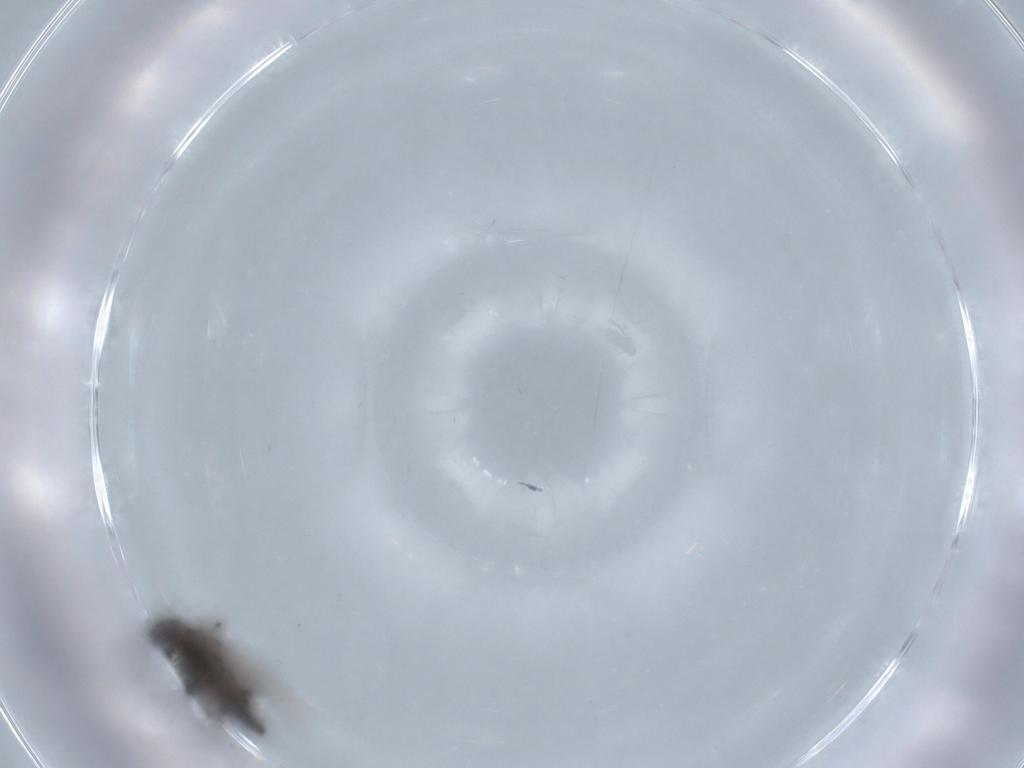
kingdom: Animalia
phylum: Arthropoda
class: Insecta
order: Diptera
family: Chironomidae
